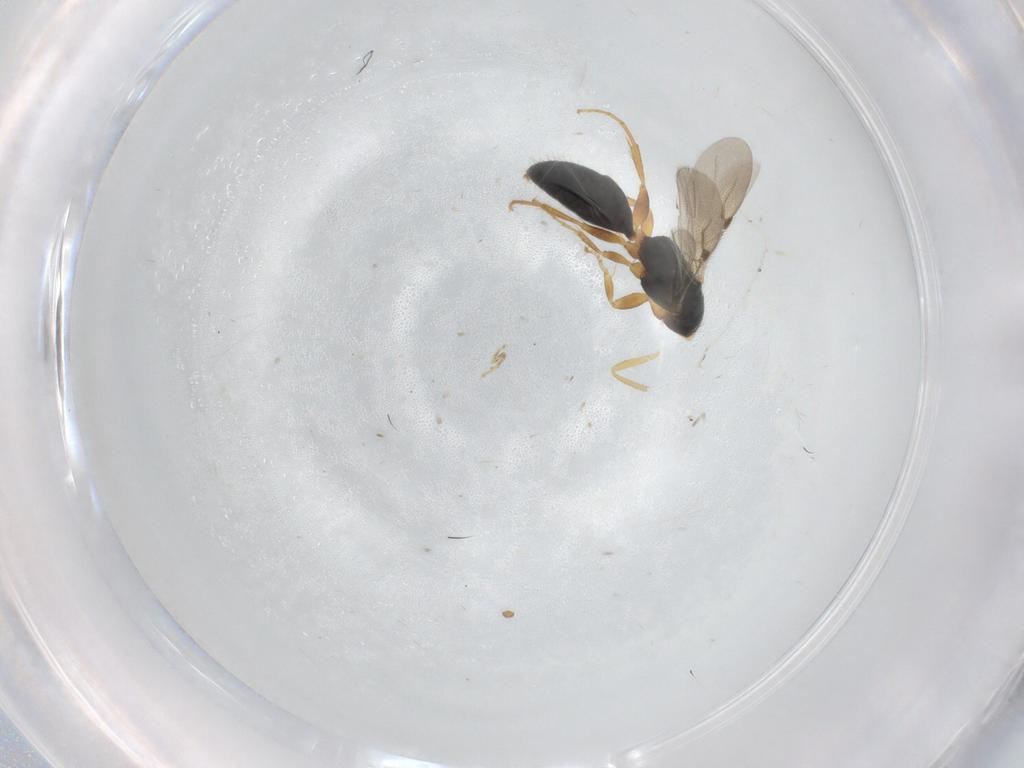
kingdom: Animalia
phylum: Arthropoda
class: Insecta
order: Hymenoptera
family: Bethylidae
